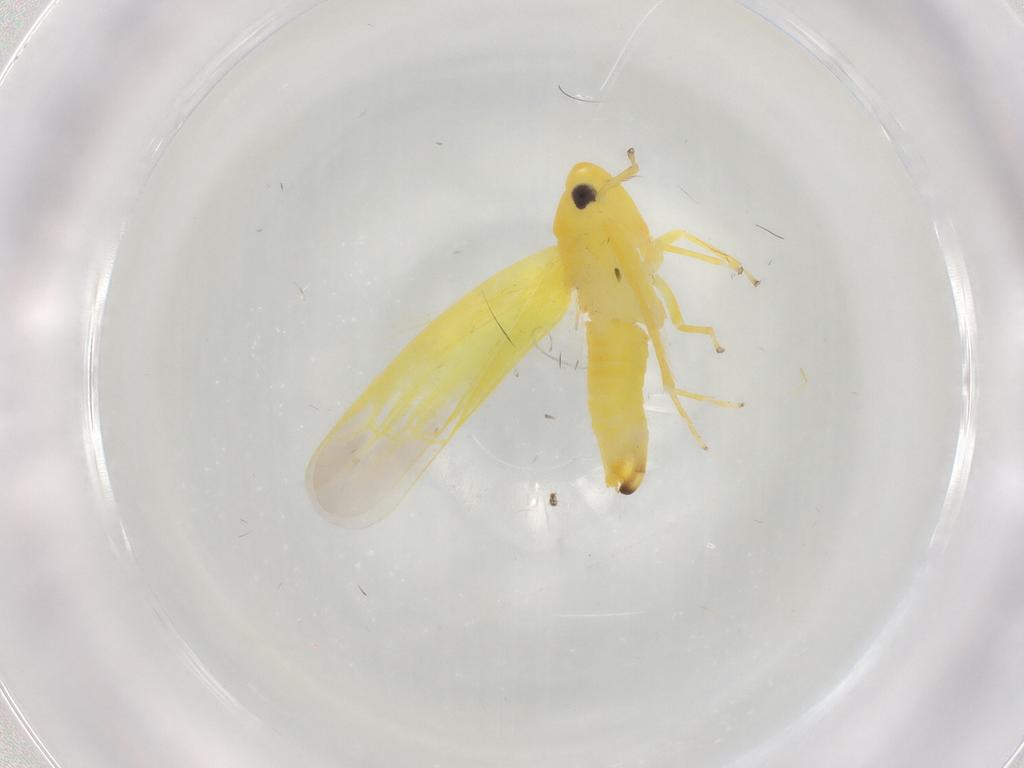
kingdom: Animalia
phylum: Arthropoda
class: Insecta
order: Hemiptera
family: Cicadellidae
